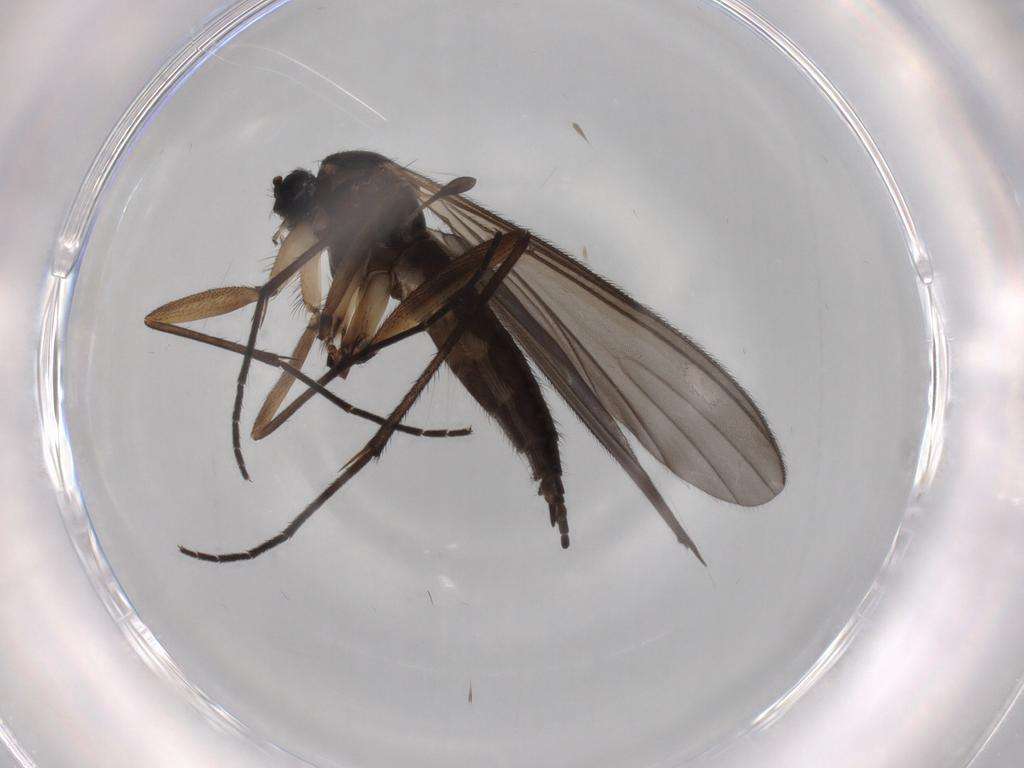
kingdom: Animalia
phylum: Arthropoda
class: Insecta
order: Diptera
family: Sciaridae
